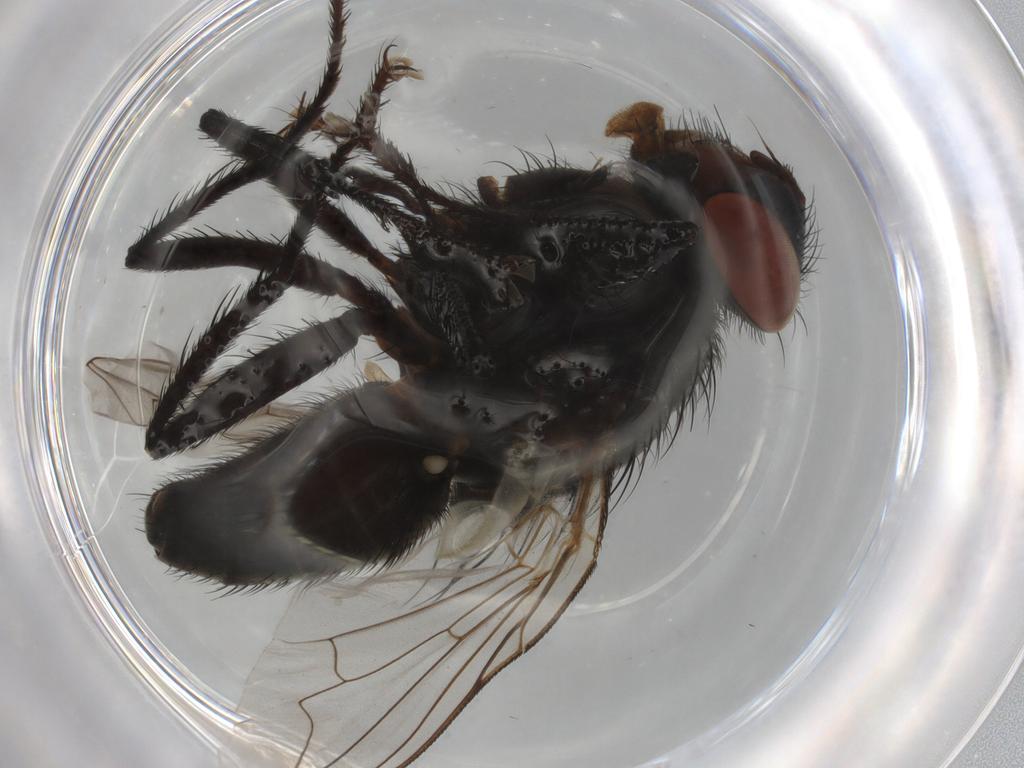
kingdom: Animalia
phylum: Arthropoda
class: Insecta
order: Diptera
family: Sarcophagidae
